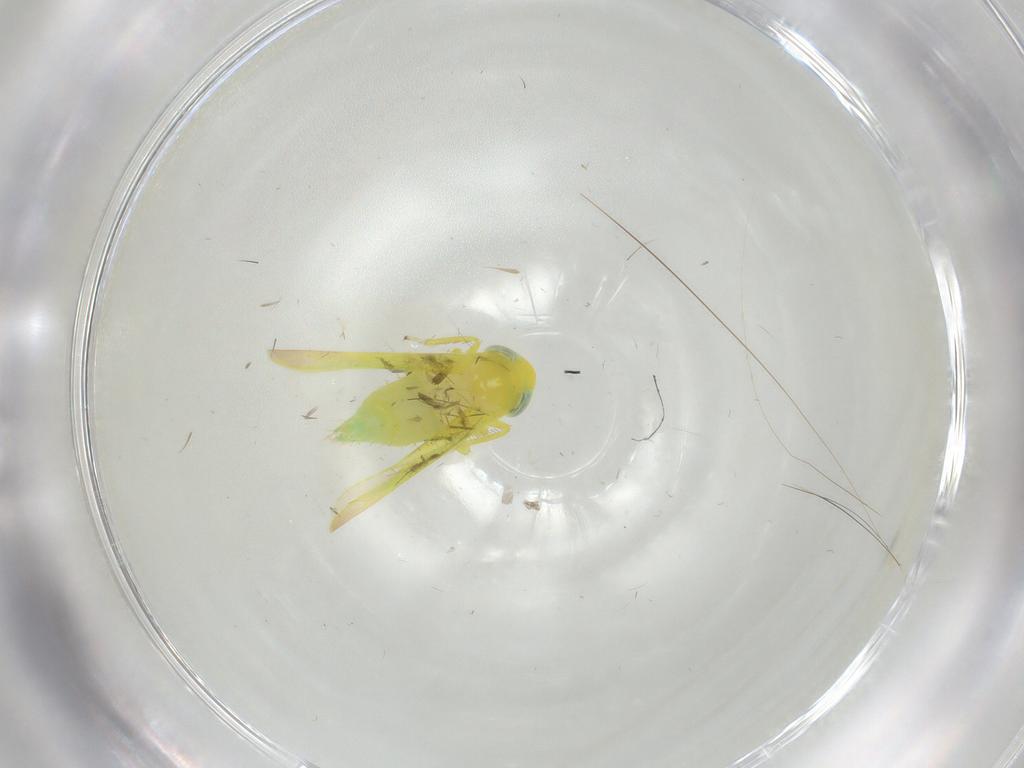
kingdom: Animalia
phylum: Arthropoda
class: Insecta
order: Hemiptera
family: Cicadellidae
